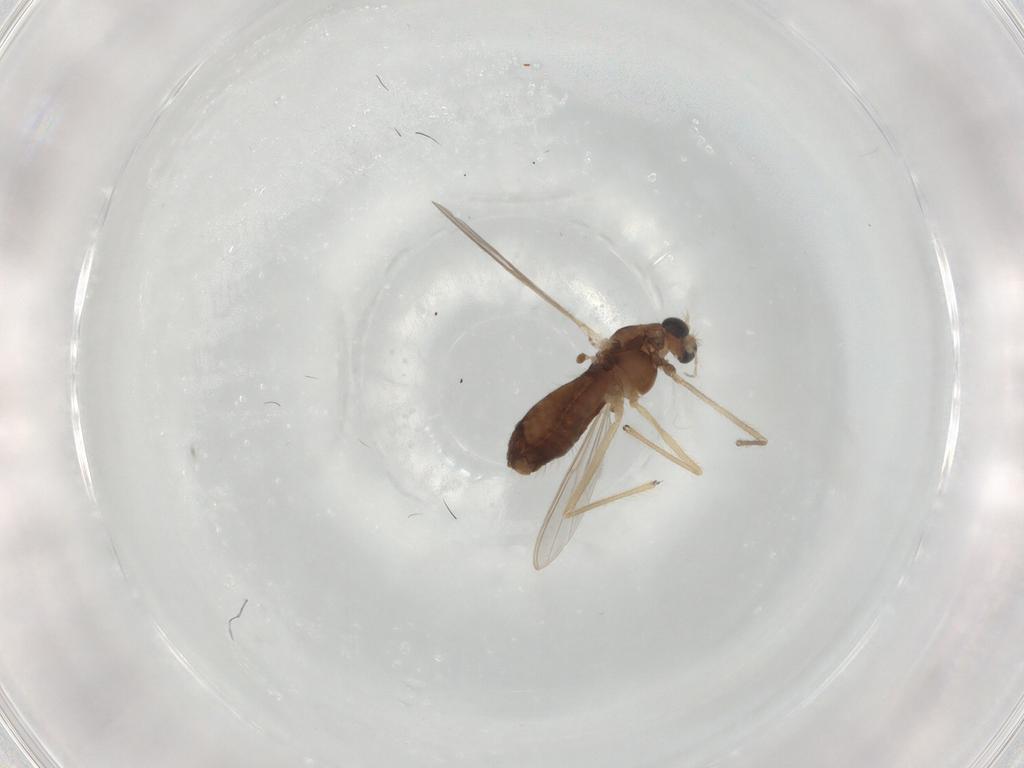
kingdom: Animalia
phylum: Arthropoda
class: Insecta
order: Diptera
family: Chironomidae
